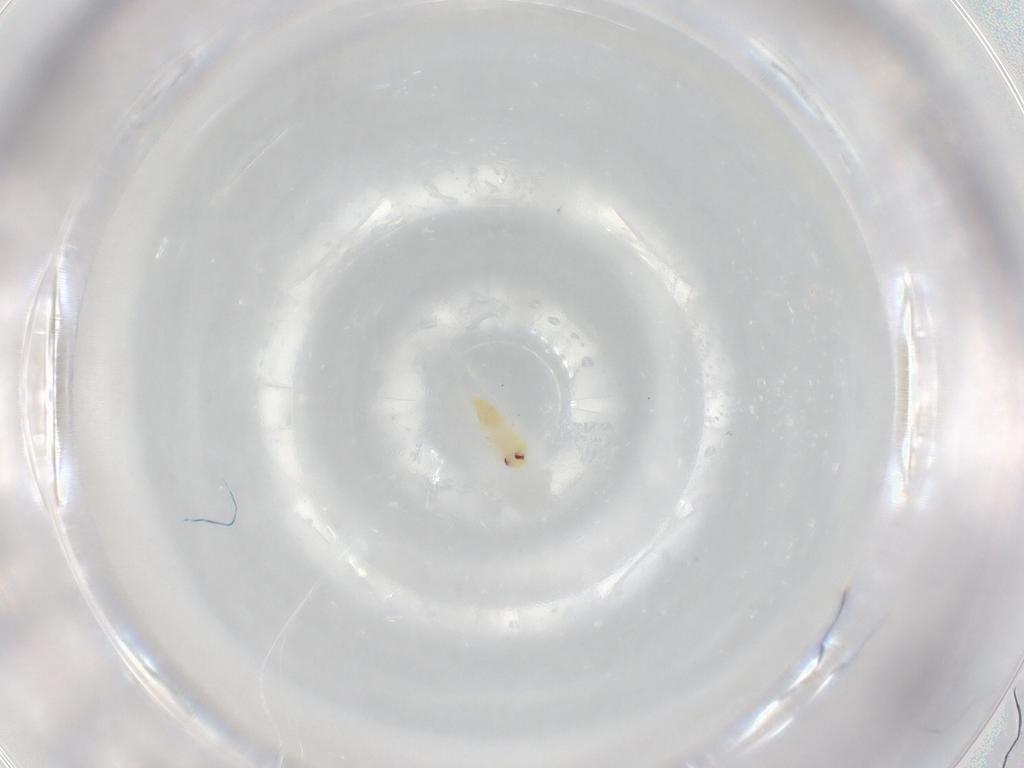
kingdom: Animalia
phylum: Arthropoda
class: Insecta
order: Hemiptera
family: Aleyrodidae
